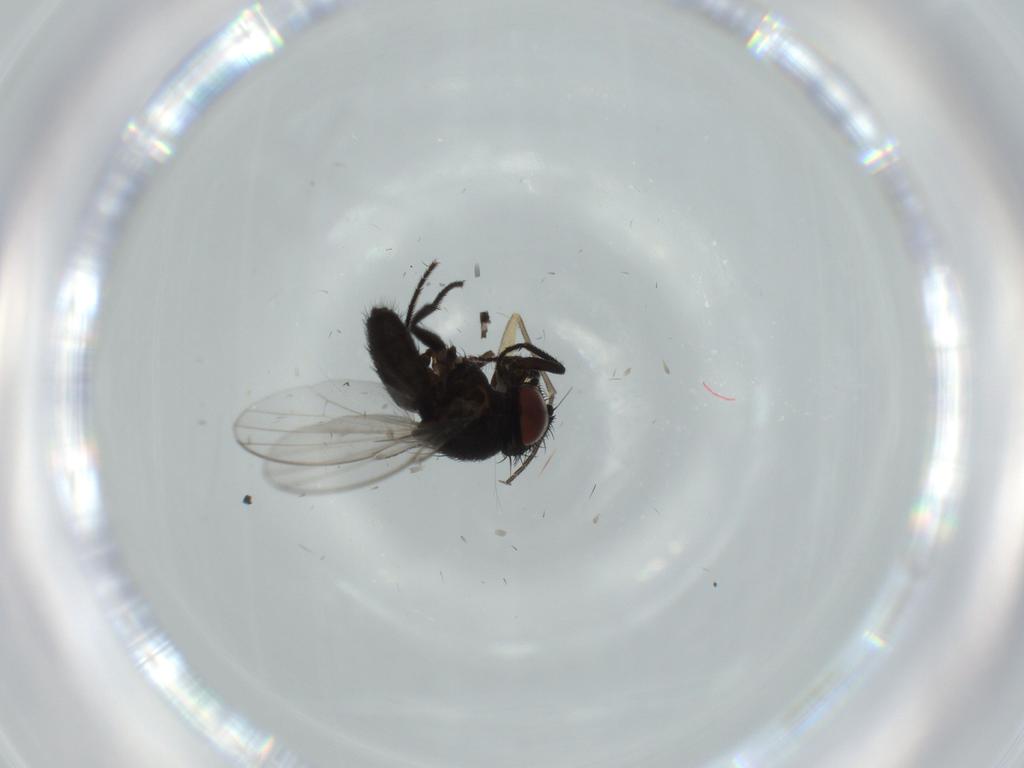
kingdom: Animalia
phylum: Arthropoda
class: Insecta
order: Diptera
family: Milichiidae
